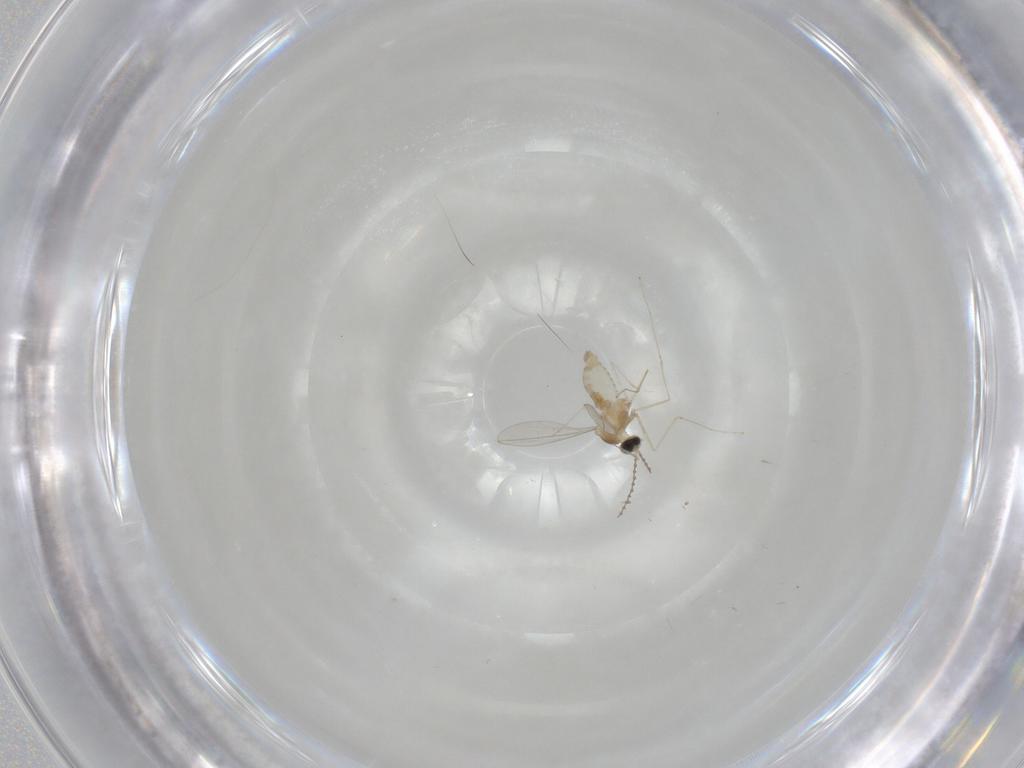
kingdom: Animalia
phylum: Arthropoda
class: Insecta
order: Diptera
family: Cecidomyiidae
